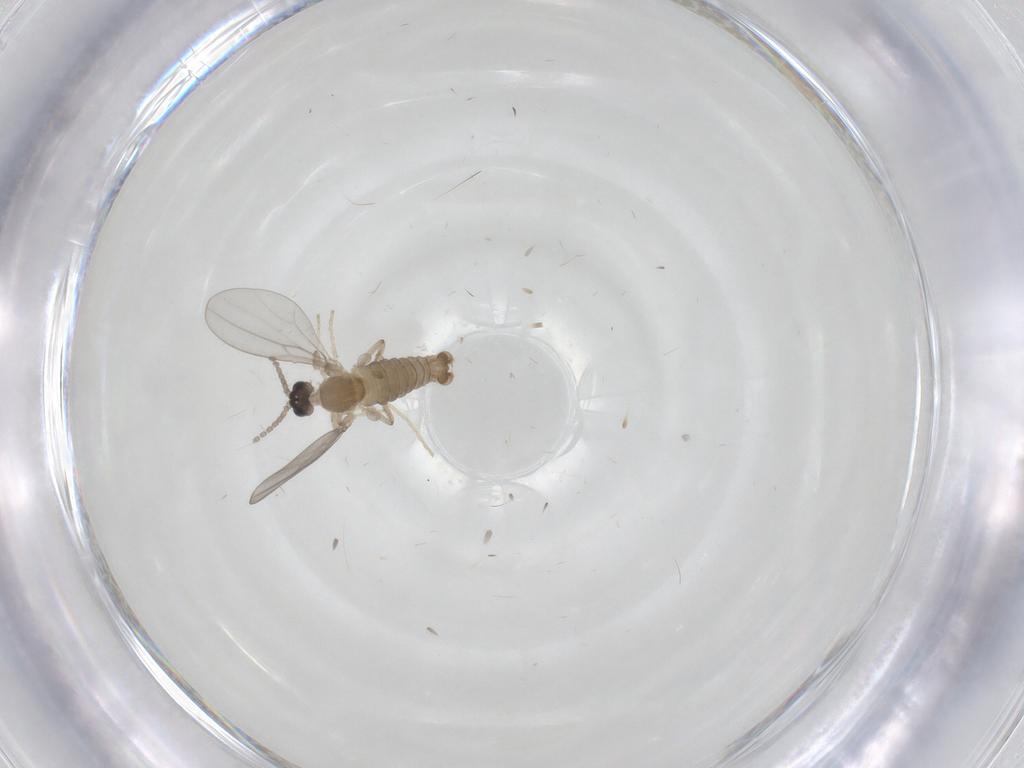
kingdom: Animalia
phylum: Arthropoda
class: Insecta
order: Diptera
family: Cecidomyiidae
